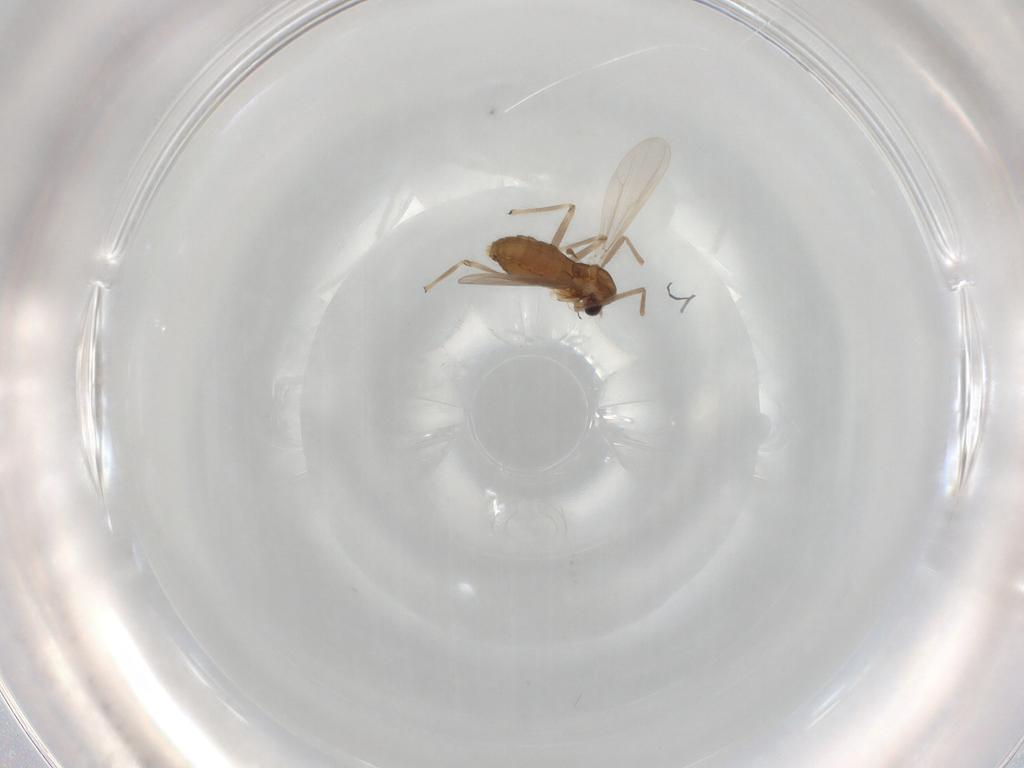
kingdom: Animalia
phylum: Arthropoda
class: Insecta
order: Diptera
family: Chironomidae
